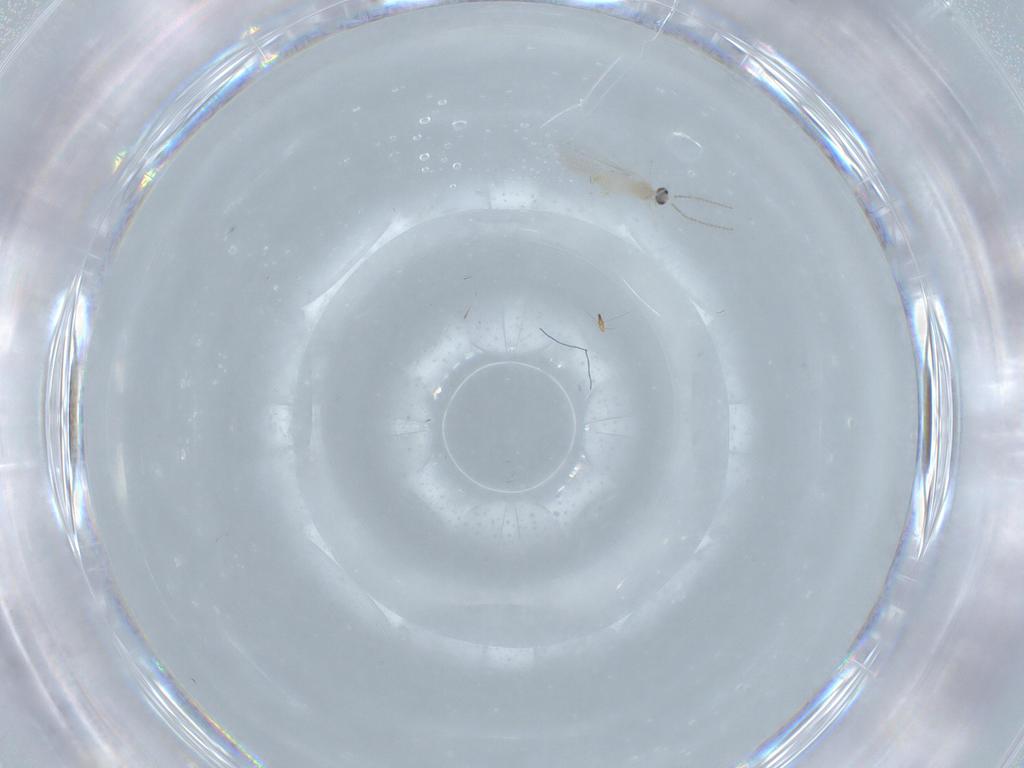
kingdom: Animalia
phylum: Arthropoda
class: Insecta
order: Diptera
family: Cecidomyiidae
